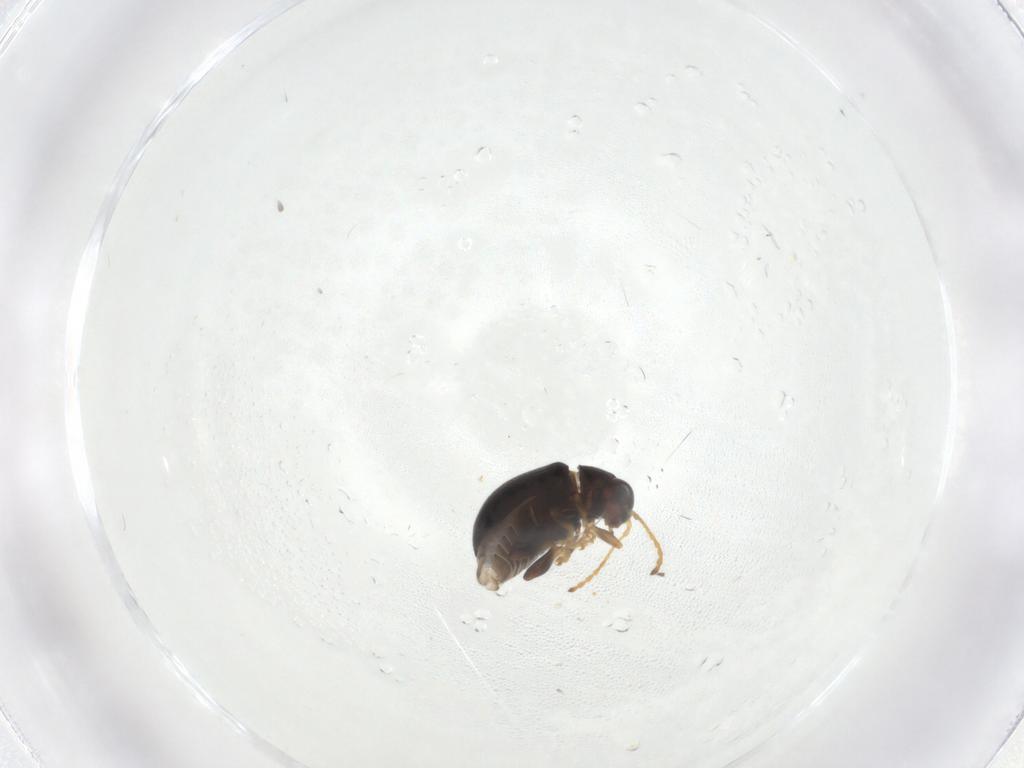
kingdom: Animalia
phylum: Arthropoda
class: Insecta
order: Coleoptera
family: Chrysomelidae
